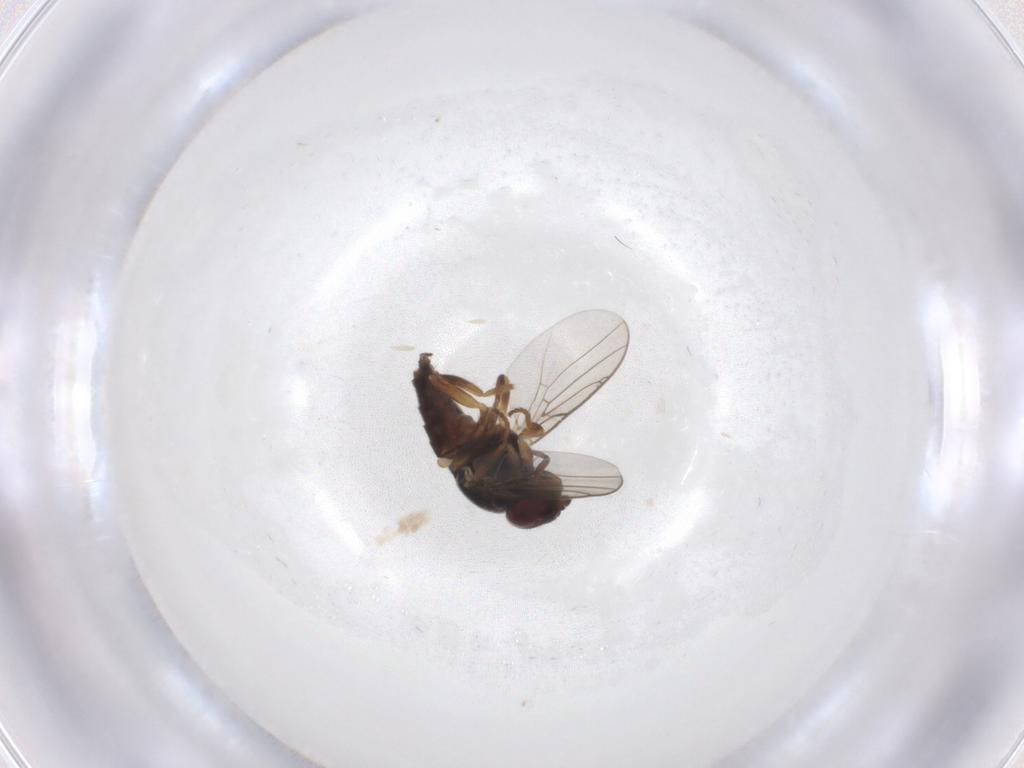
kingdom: Animalia
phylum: Arthropoda
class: Insecta
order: Diptera
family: Chloropidae
